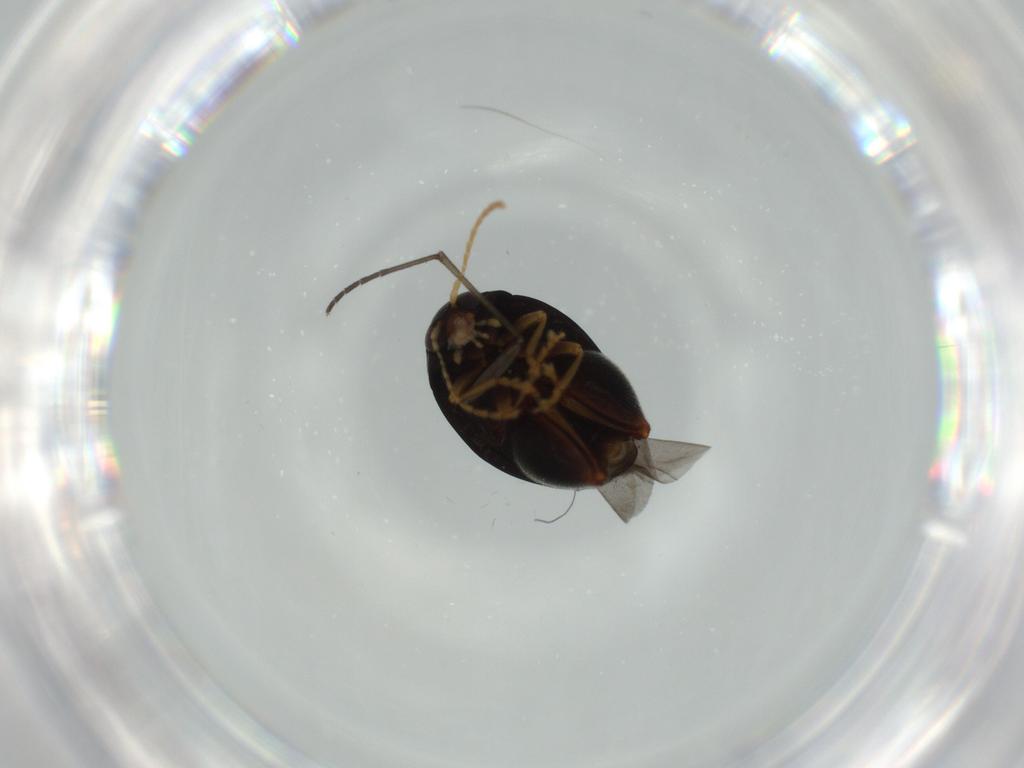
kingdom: Animalia
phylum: Arthropoda
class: Insecta
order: Coleoptera
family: Chrysomelidae
